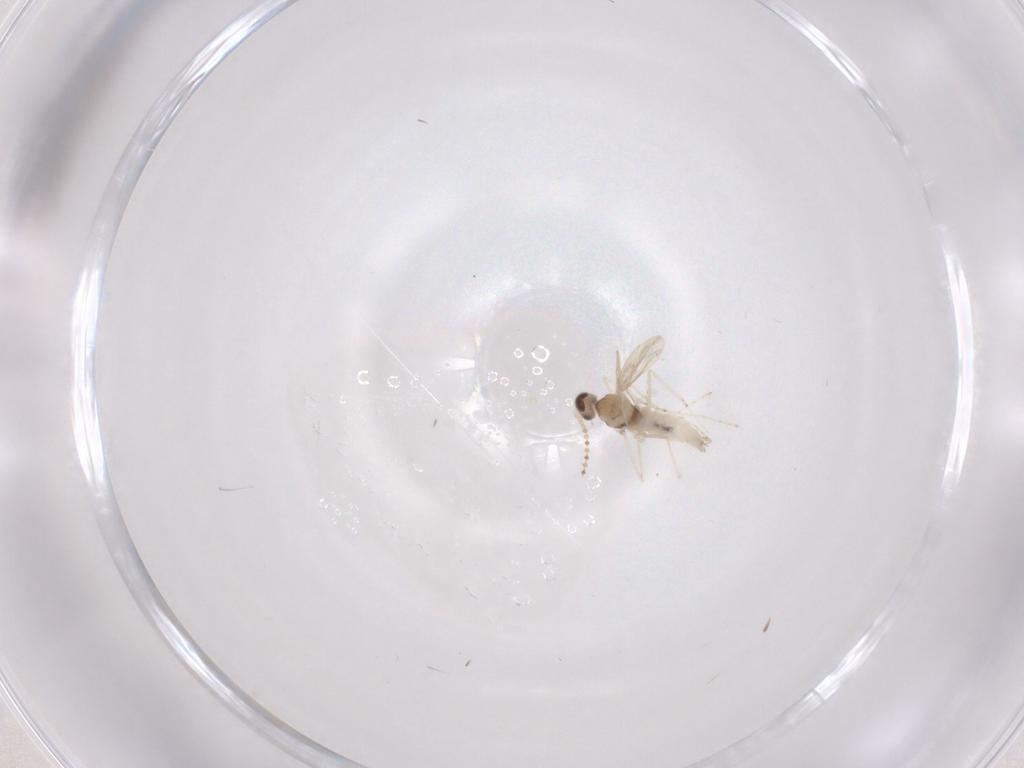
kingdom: Animalia
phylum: Arthropoda
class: Insecta
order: Diptera
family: Cecidomyiidae
